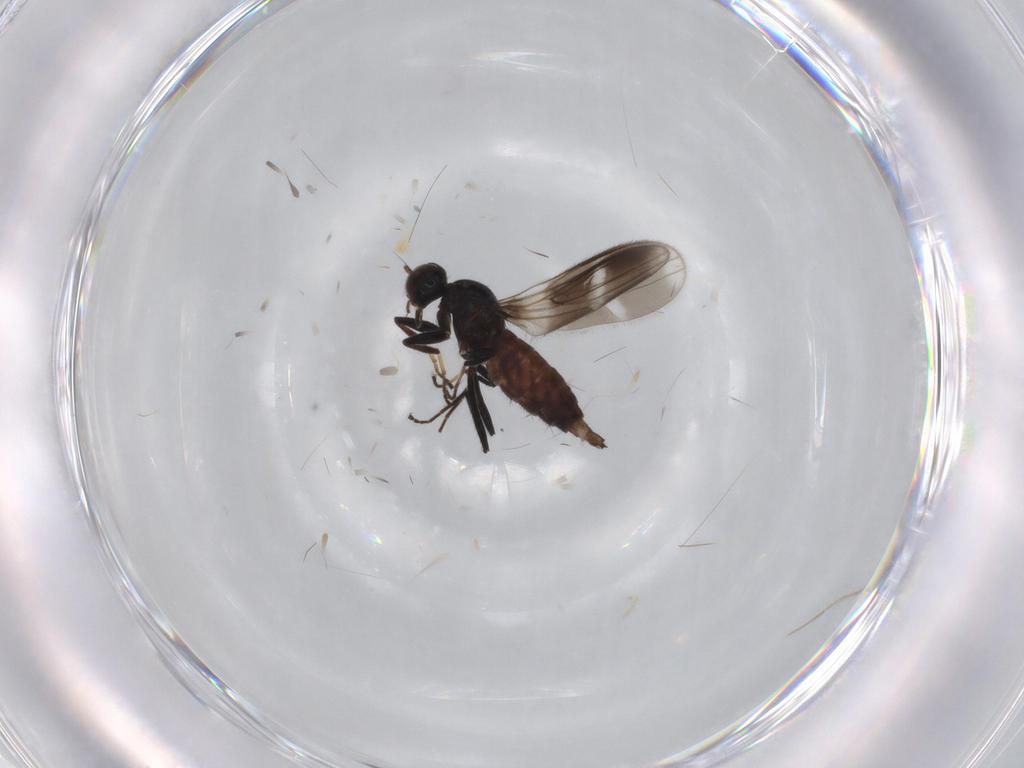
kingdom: Animalia
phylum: Arthropoda
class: Insecta
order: Diptera
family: Hybotidae
